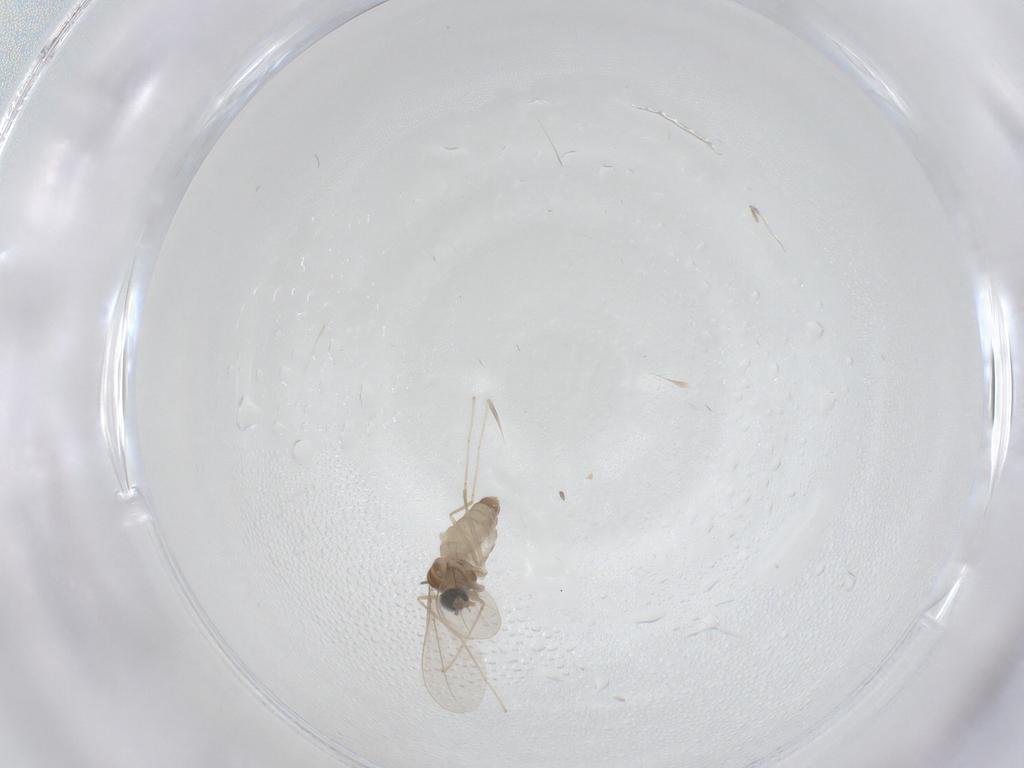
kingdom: Animalia
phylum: Arthropoda
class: Insecta
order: Diptera
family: Cecidomyiidae
